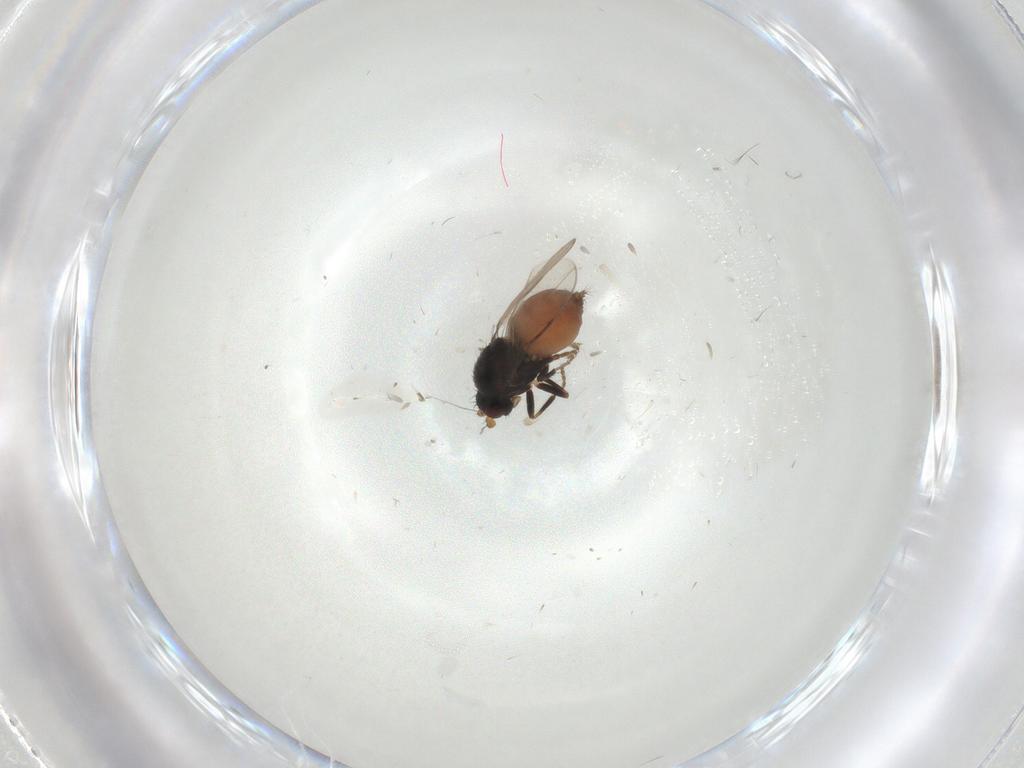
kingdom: Animalia
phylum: Arthropoda
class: Insecta
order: Diptera
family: Sphaeroceridae
